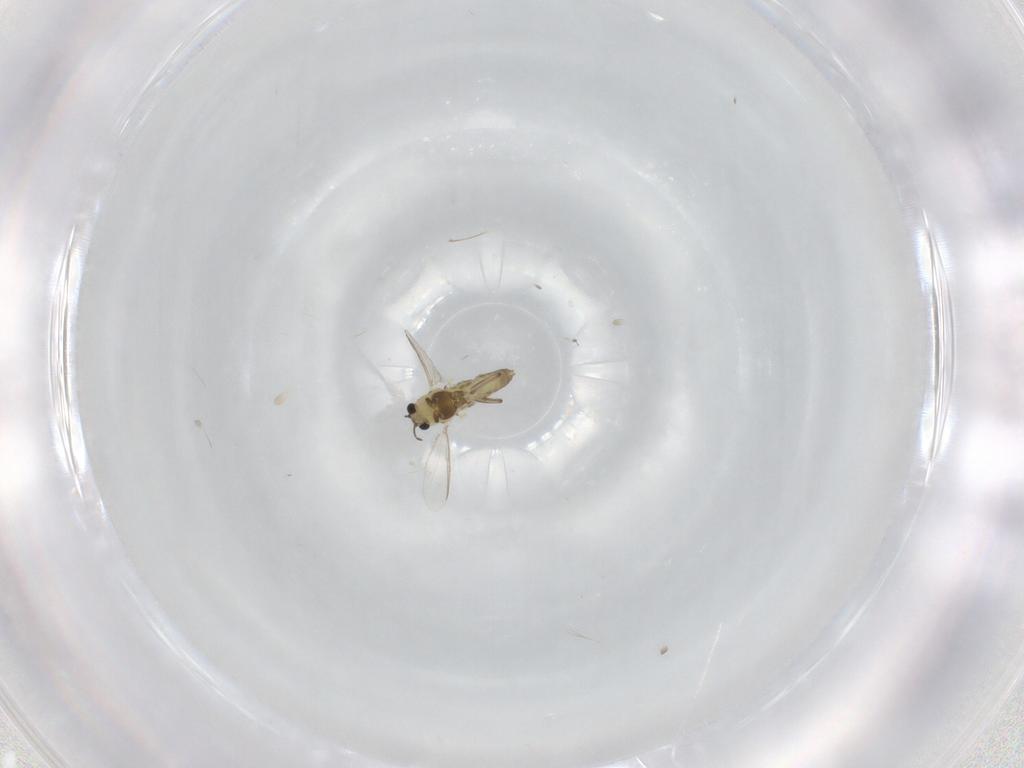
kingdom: Animalia
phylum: Arthropoda
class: Insecta
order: Diptera
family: Chironomidae
